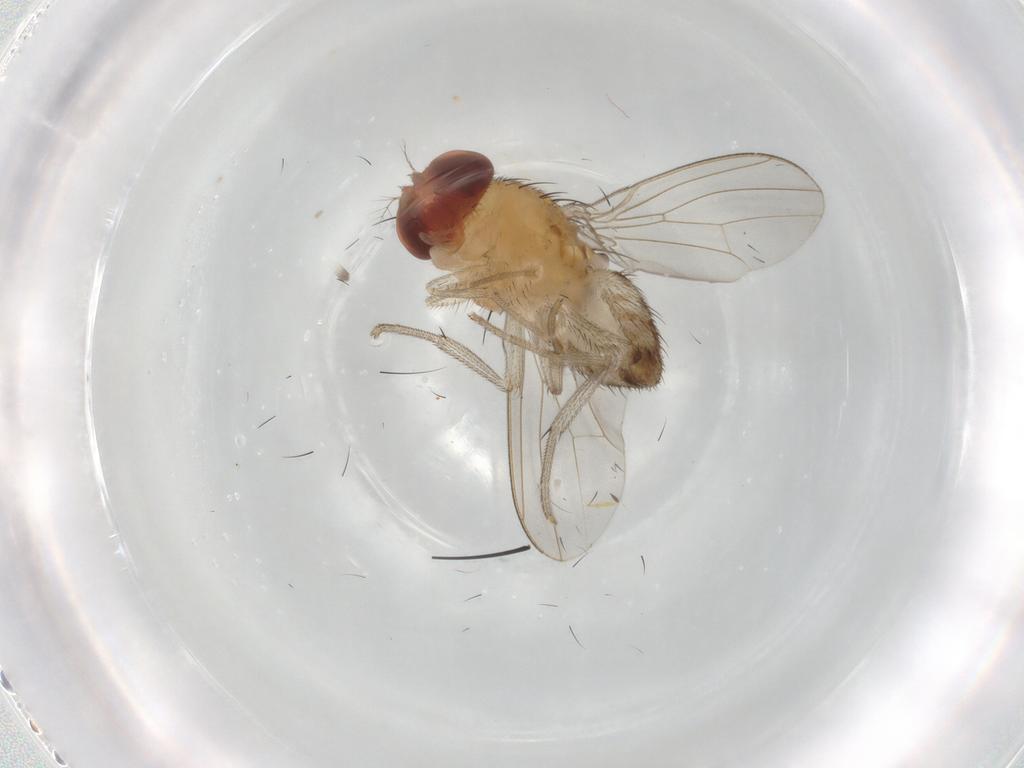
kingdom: Animalia
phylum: Arthropoda
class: Insecta
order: Diptera
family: Drosophilidae
